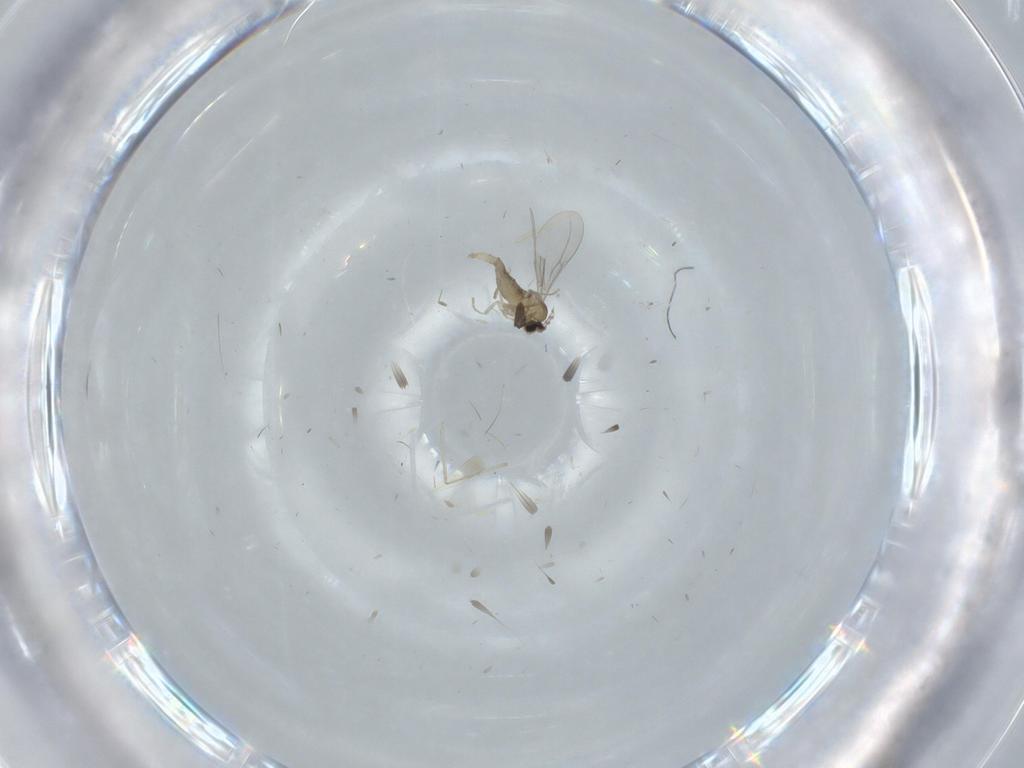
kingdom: Animalia
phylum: Arthropoda
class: Insecta
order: Diptera
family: Cecidomyiidae
